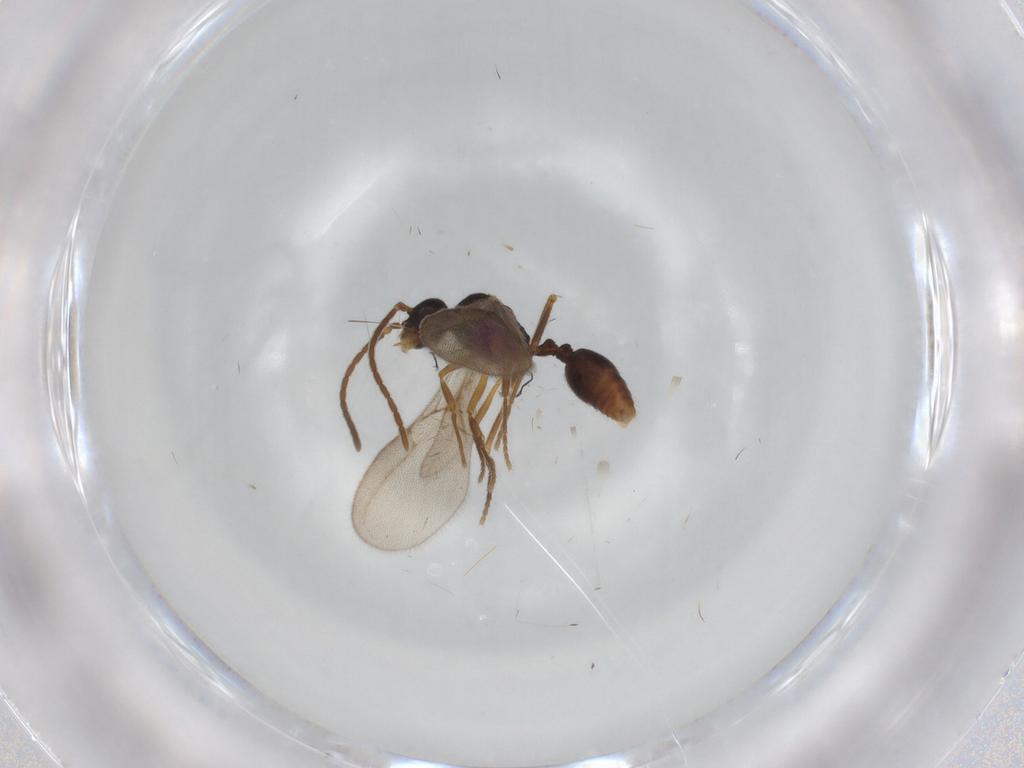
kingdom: Animalia
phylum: Arthropoda
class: Insecta
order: Hymenoptera
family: Formicidae
